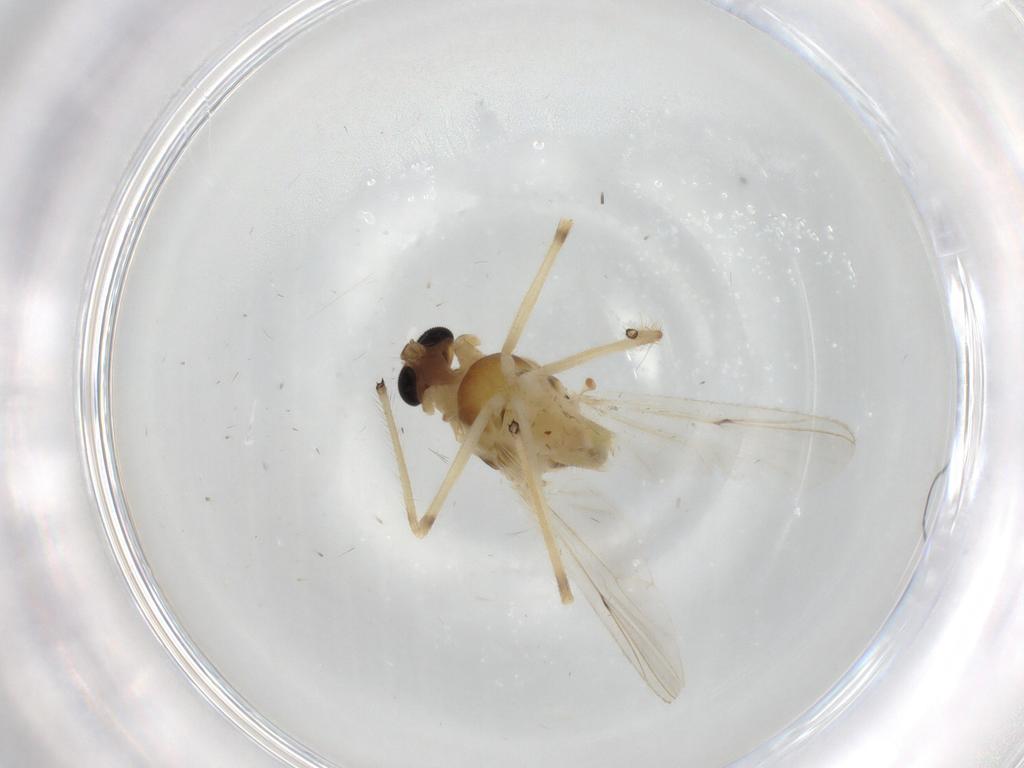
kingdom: Animalia
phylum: Arthropoda
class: Insecta
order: Diptera
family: Chironomidae
